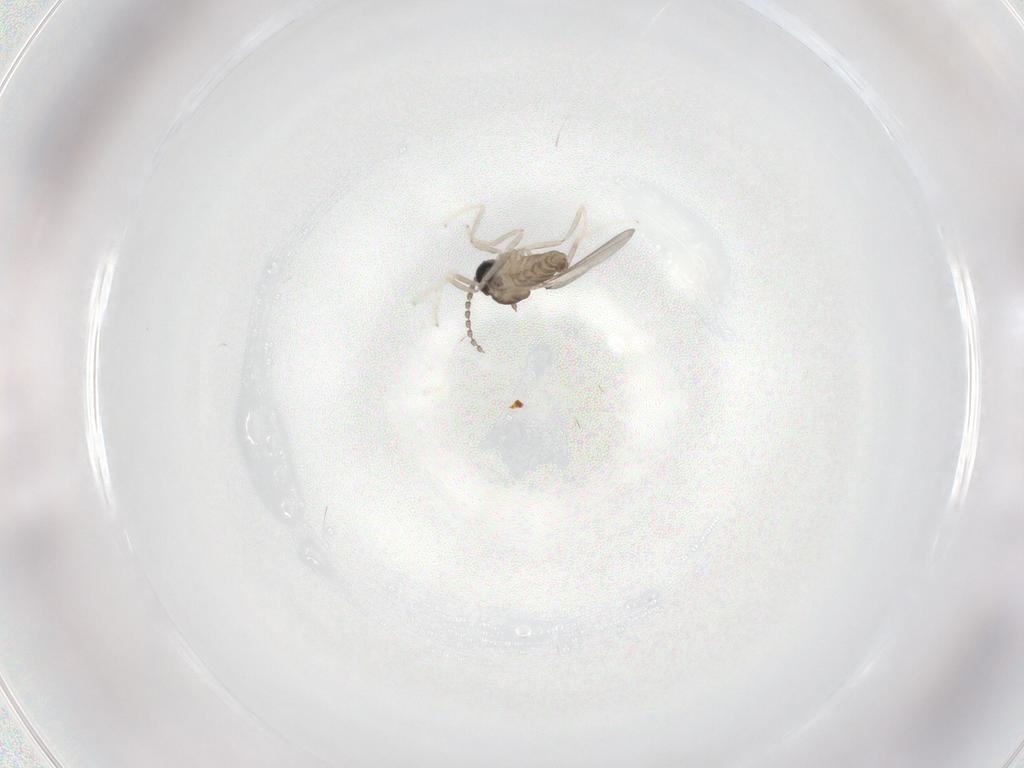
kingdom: Animalia
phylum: Arthropoda
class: Insecta
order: Diptera
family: Cecidomyiidae
